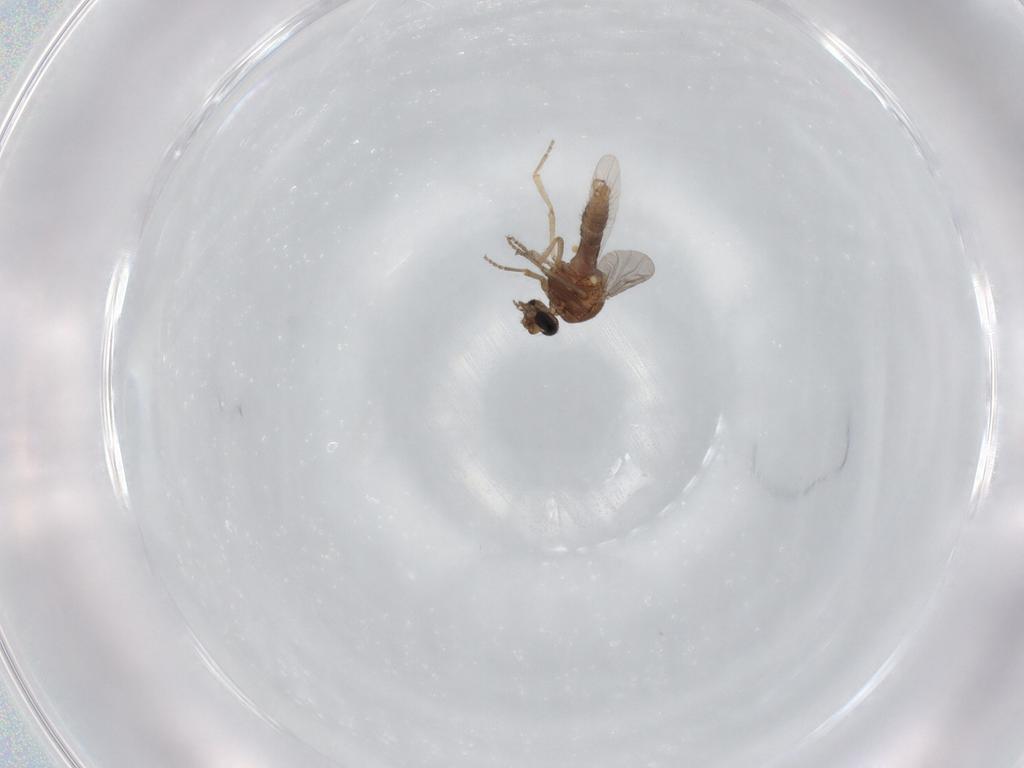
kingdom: Animalia
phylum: Arthropoda
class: Insecta
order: Diptera
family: Ceratopogonidae
